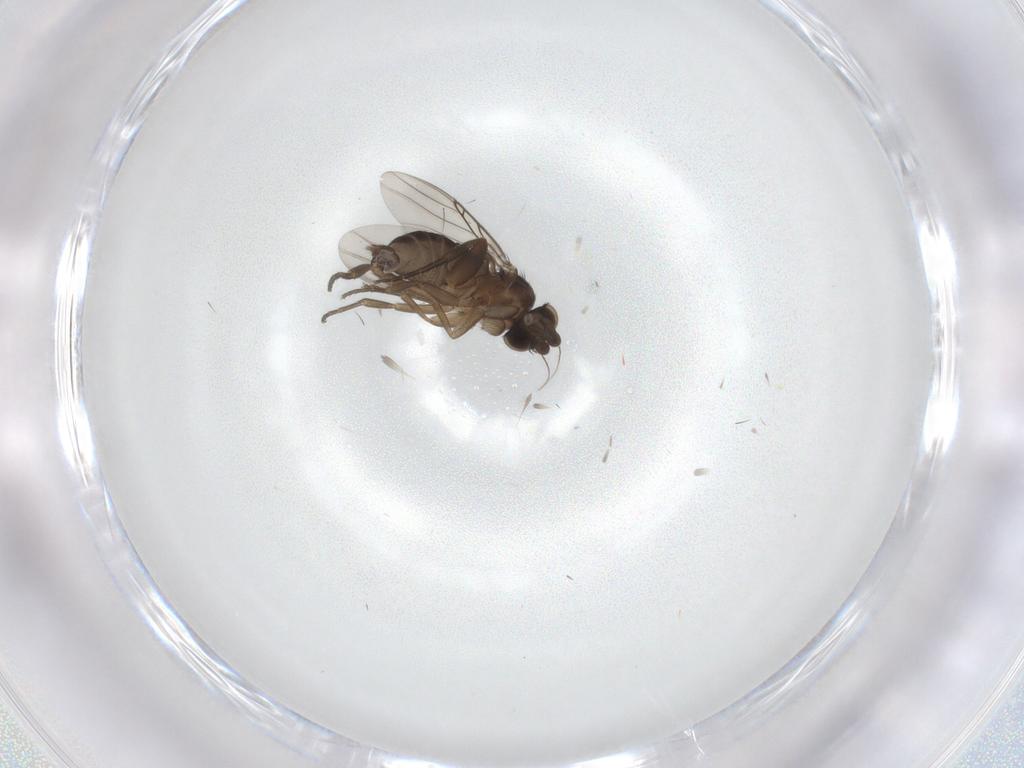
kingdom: Animalia
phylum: Arthropoda
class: Insecta
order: Diptera
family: Phoridae
